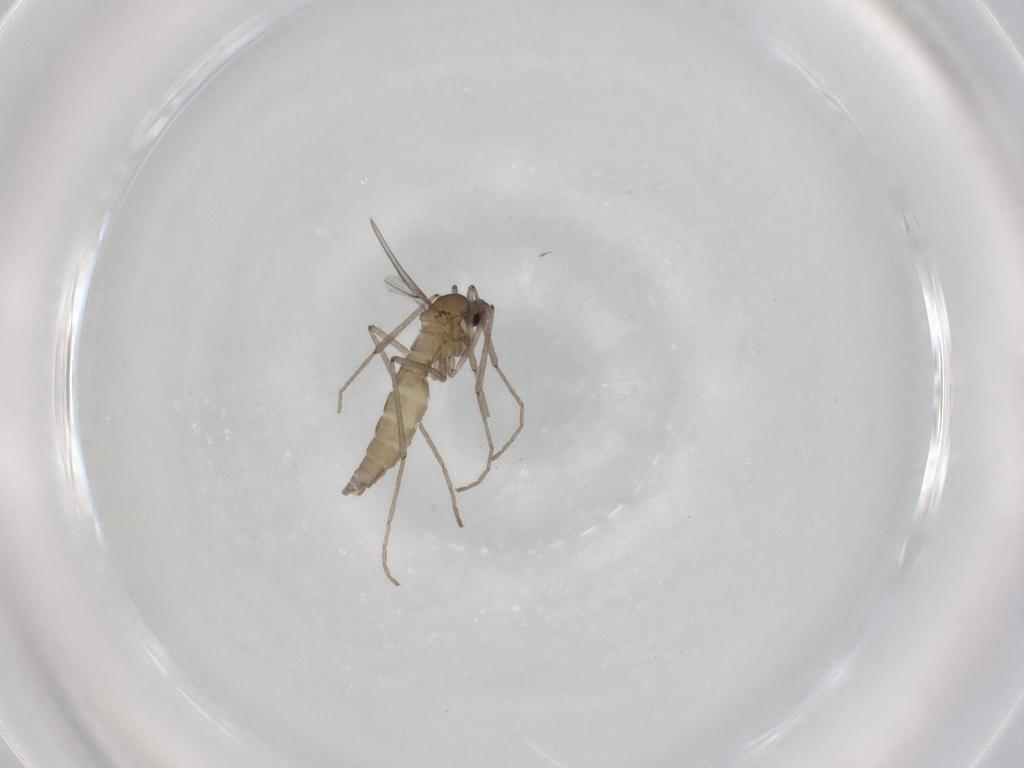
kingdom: Animalia
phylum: Arthropoda
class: Insecta
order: Diptera
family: Cecidomyiidae
